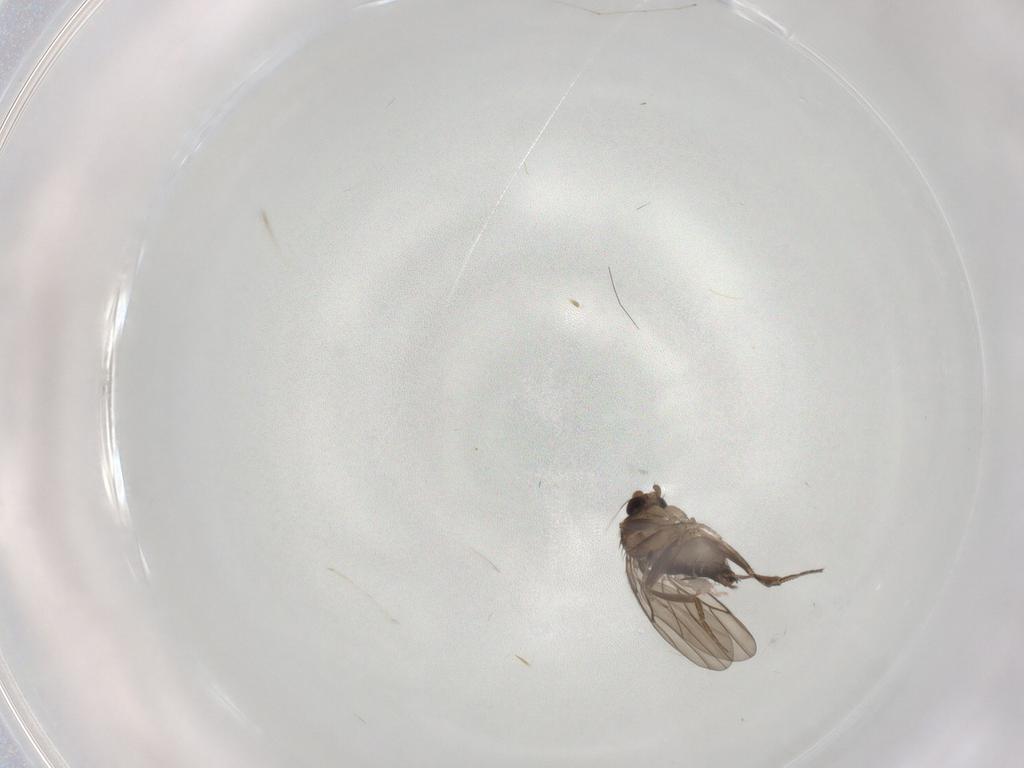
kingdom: Animalia
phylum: Arthropoda
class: Insecta
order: Diptera
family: Cecidomyiidae
